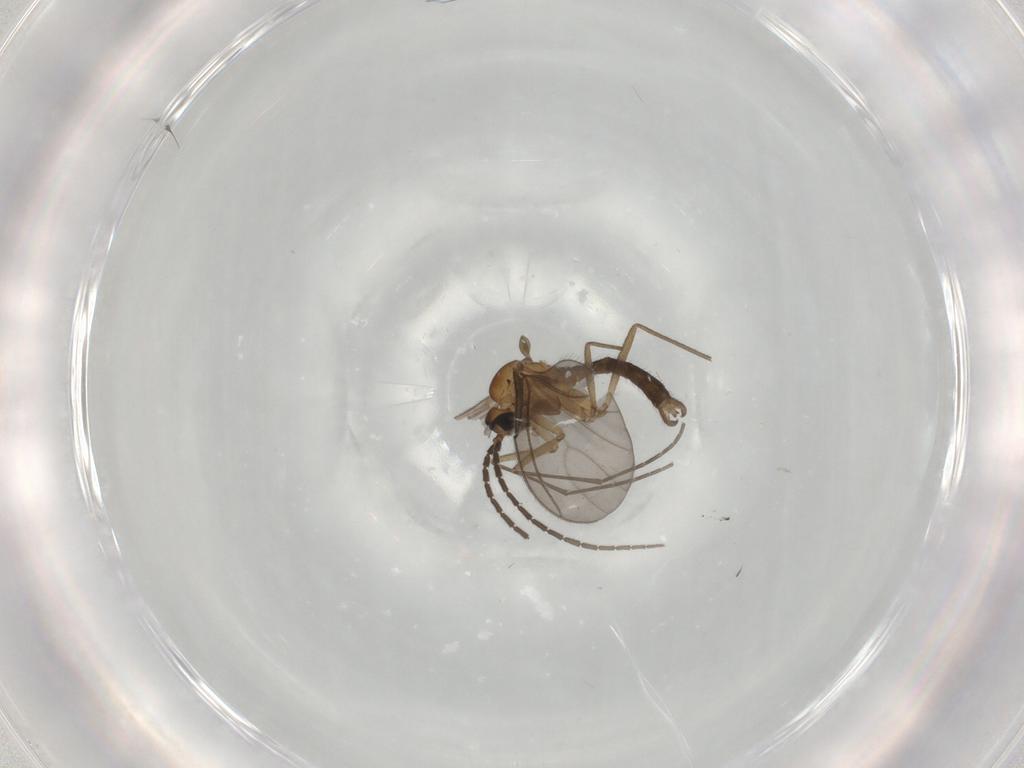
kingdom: Animalia
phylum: Arthropoda
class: Insecta
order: Diptera
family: Sciaridae
